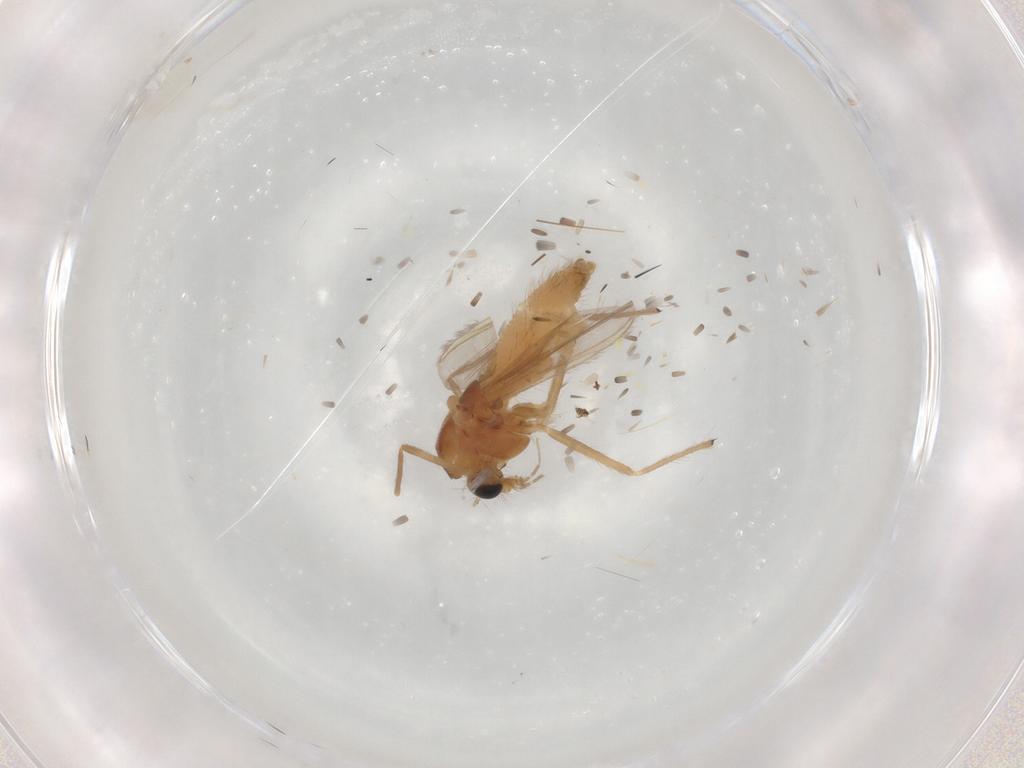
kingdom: Animalia
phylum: Arthropoda
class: Insecta
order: Diptera
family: Chironomidae
